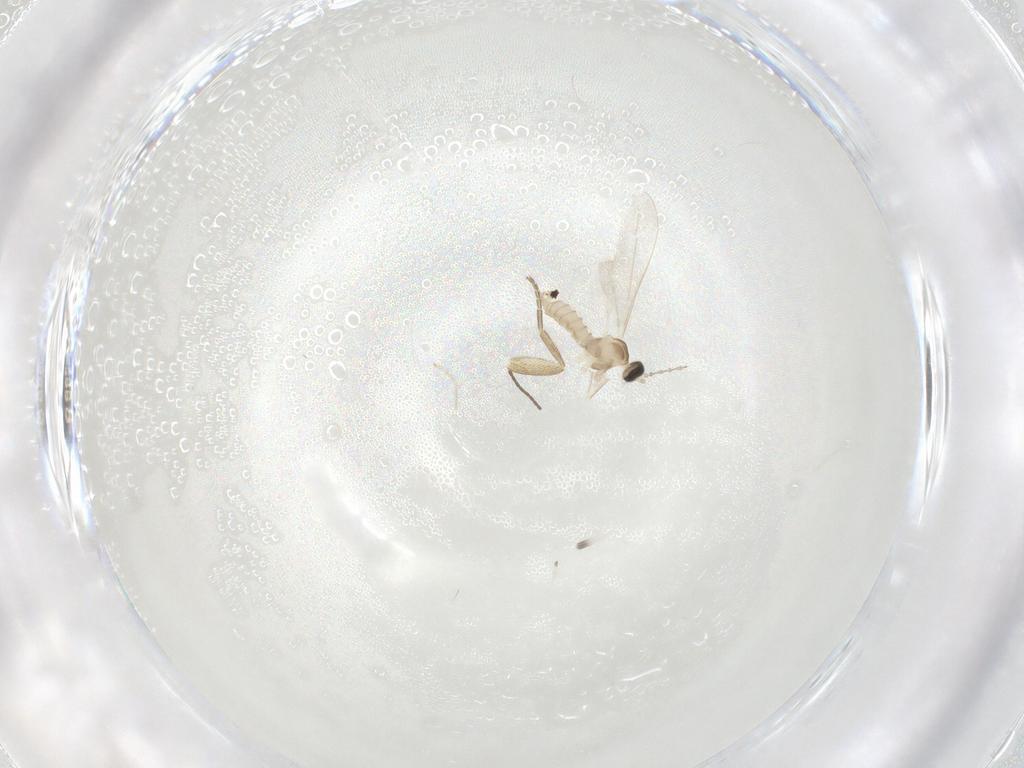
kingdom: Animalia
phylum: Arthropoda
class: Insecta
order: Diptera
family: Cecidomyiidae
